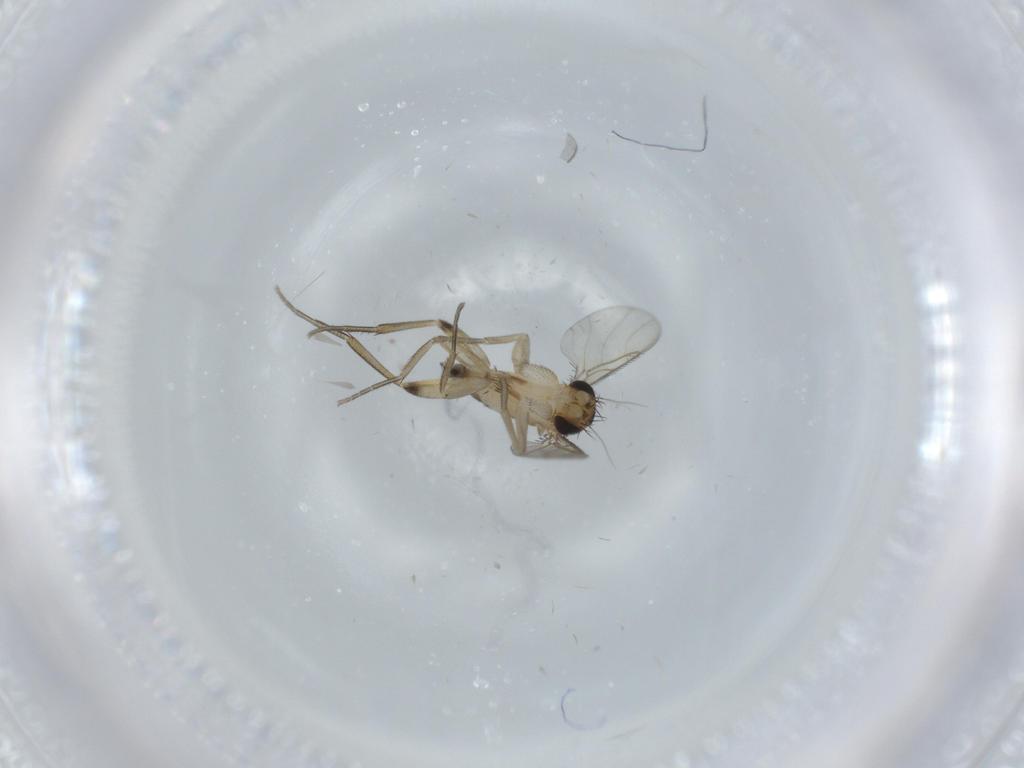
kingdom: Animalia
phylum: Arthropoda
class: Insecta
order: Diptera
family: Phoridae
